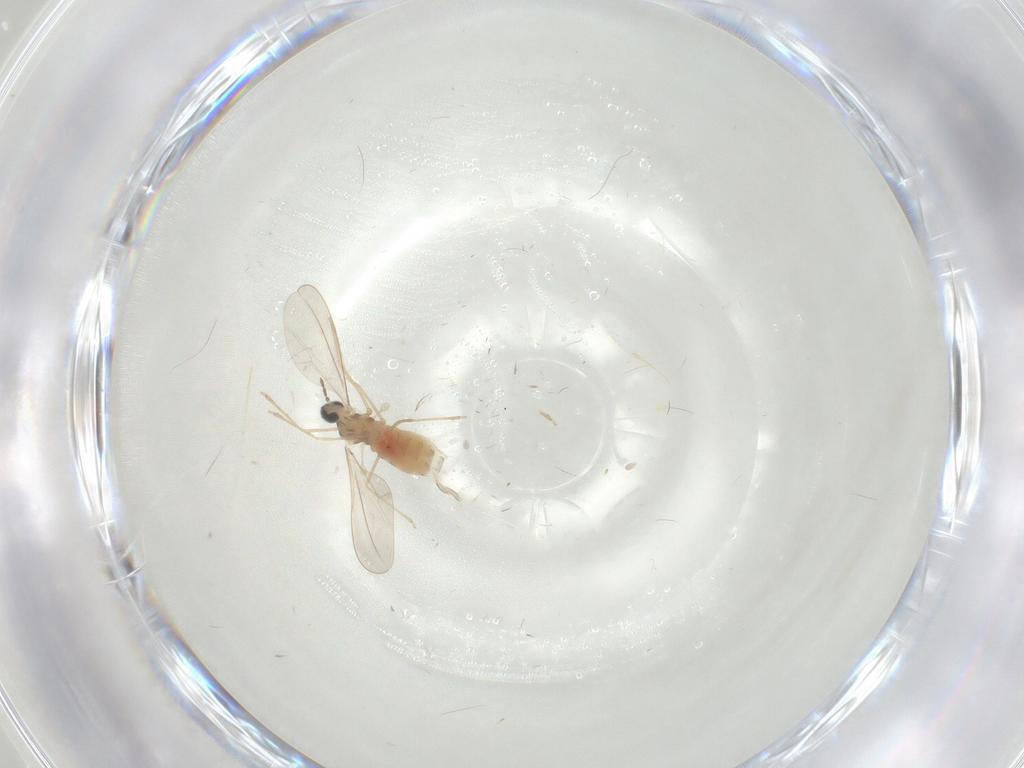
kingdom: Animalia
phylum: Arthropoda
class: Insecta
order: Diptera
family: Cecidomyiidae
